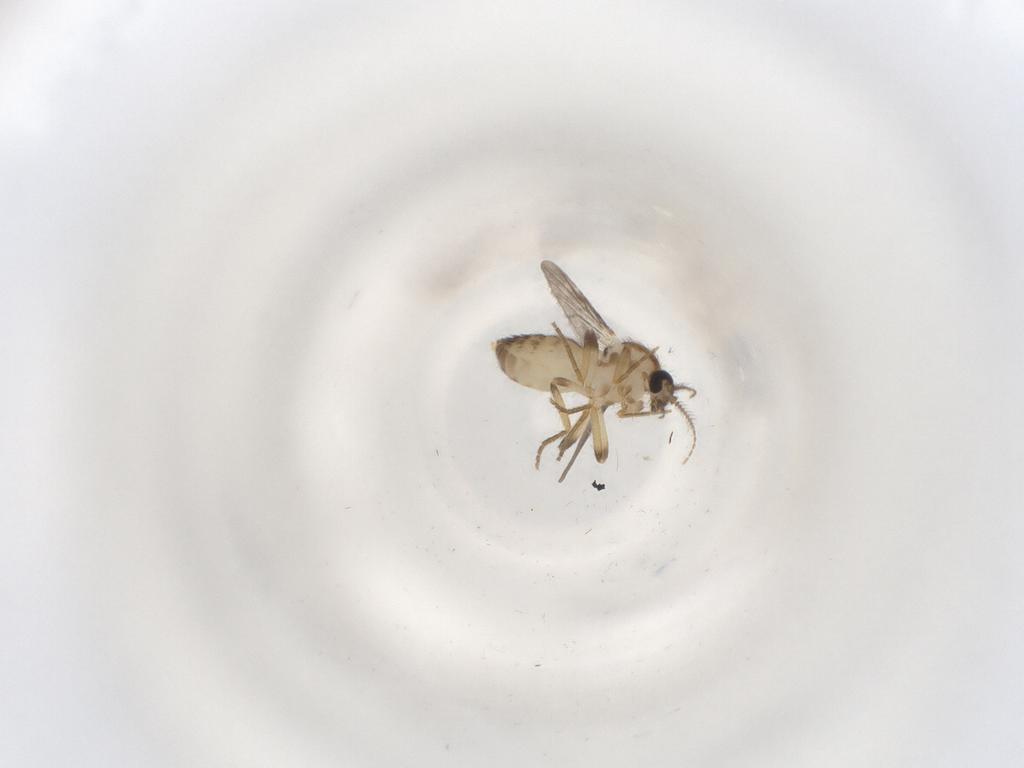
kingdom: Animalia
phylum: Arthropoda
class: Insecta
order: Diptera
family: Ceratopogonidae
